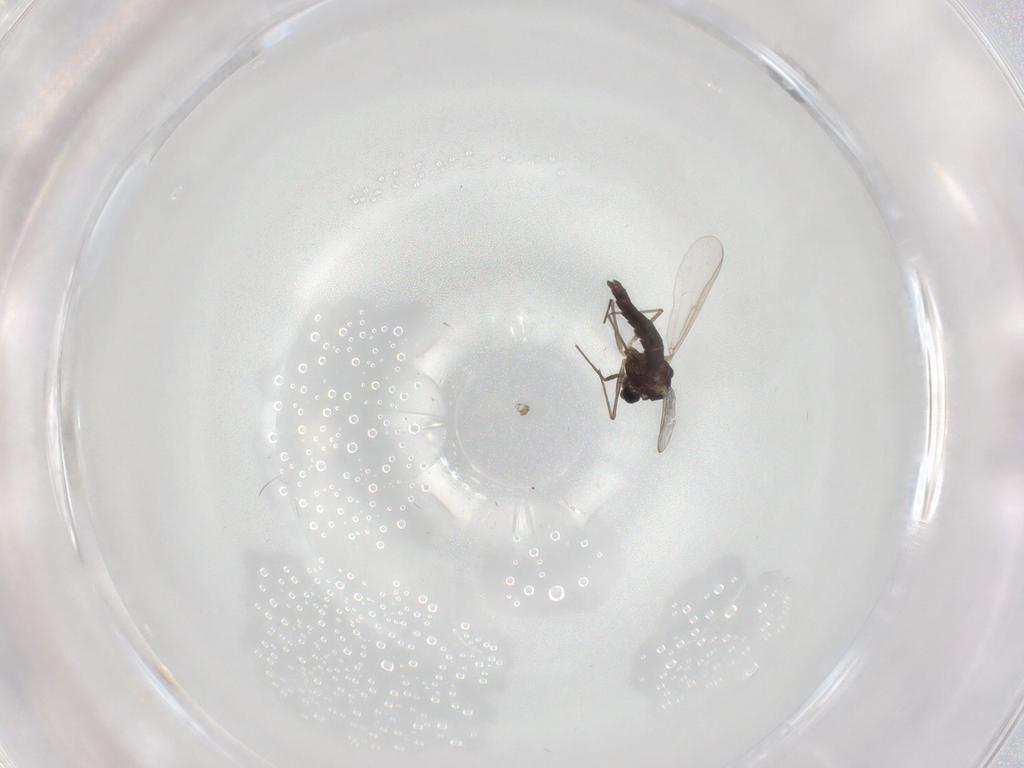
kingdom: Animalia
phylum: Arthropoda
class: Insecta
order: Diptera
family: Chironomidae
